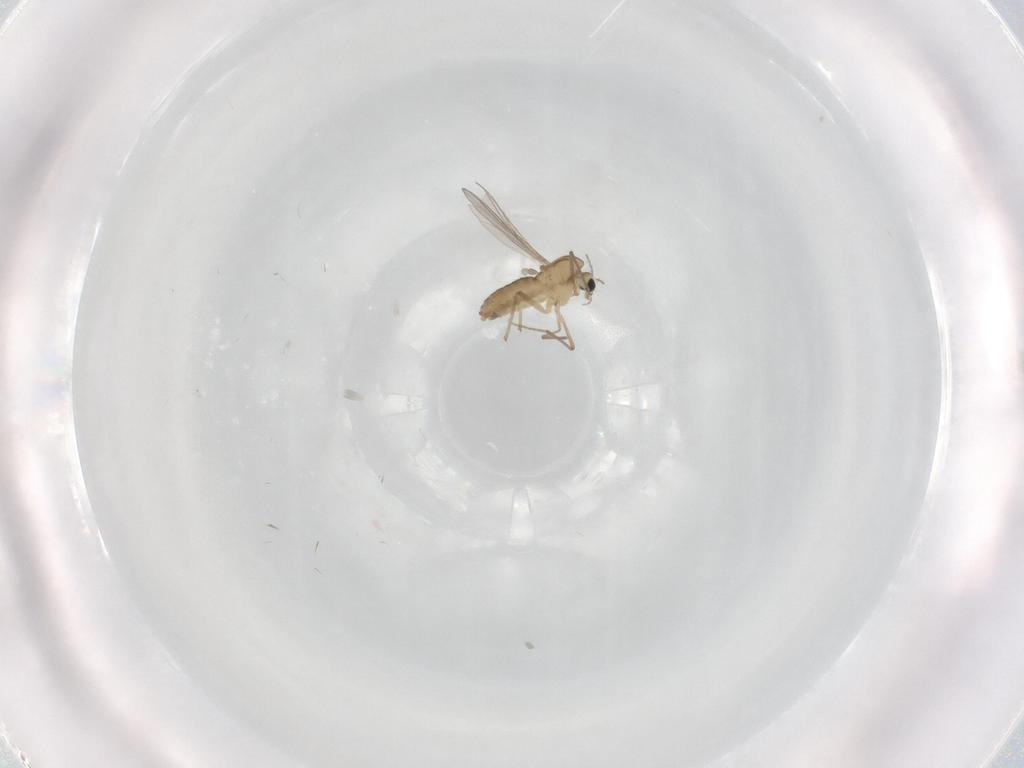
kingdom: Animalia
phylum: Arthropoda
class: Insecta
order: Diptera
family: Chironomidae
